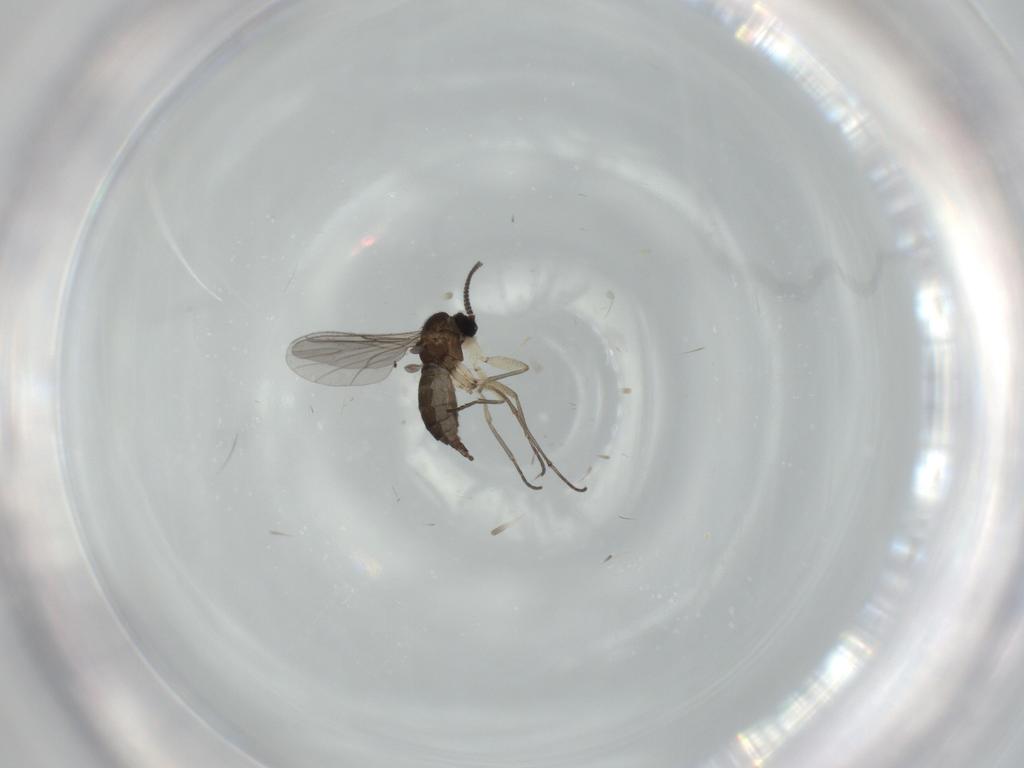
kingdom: Animalia
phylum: Arthropoda
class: Insecta
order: Diptera
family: Sciaridae
